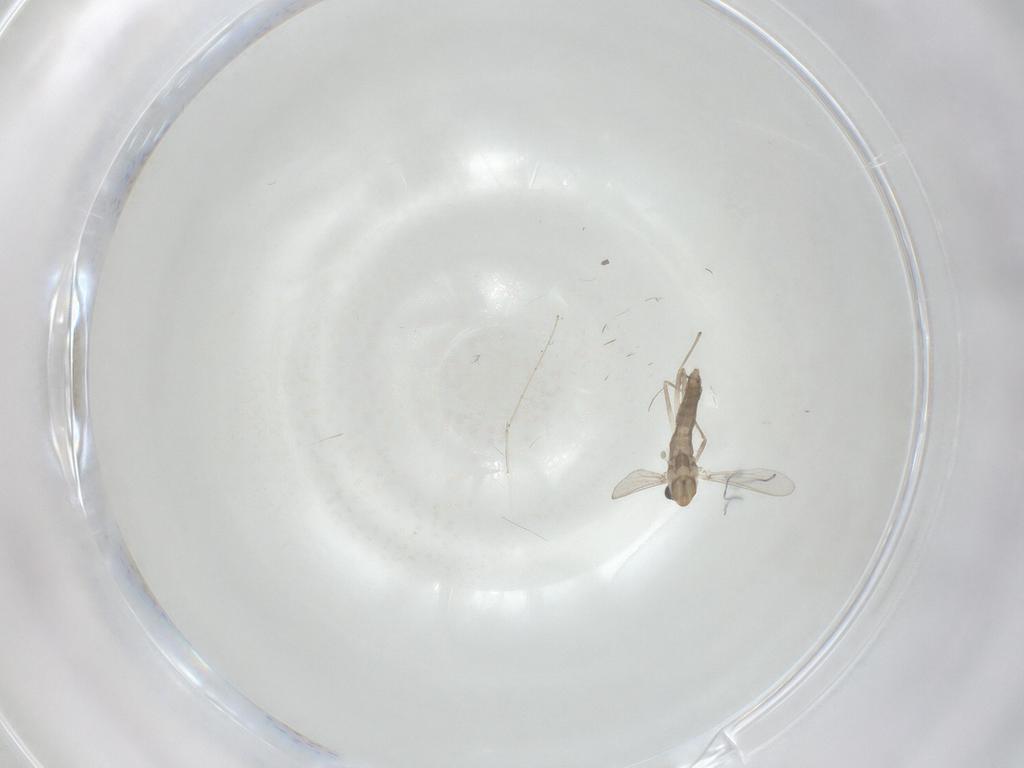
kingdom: Animalia
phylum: Arthropoda
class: Insecta
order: Diptera
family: Chironomidae
